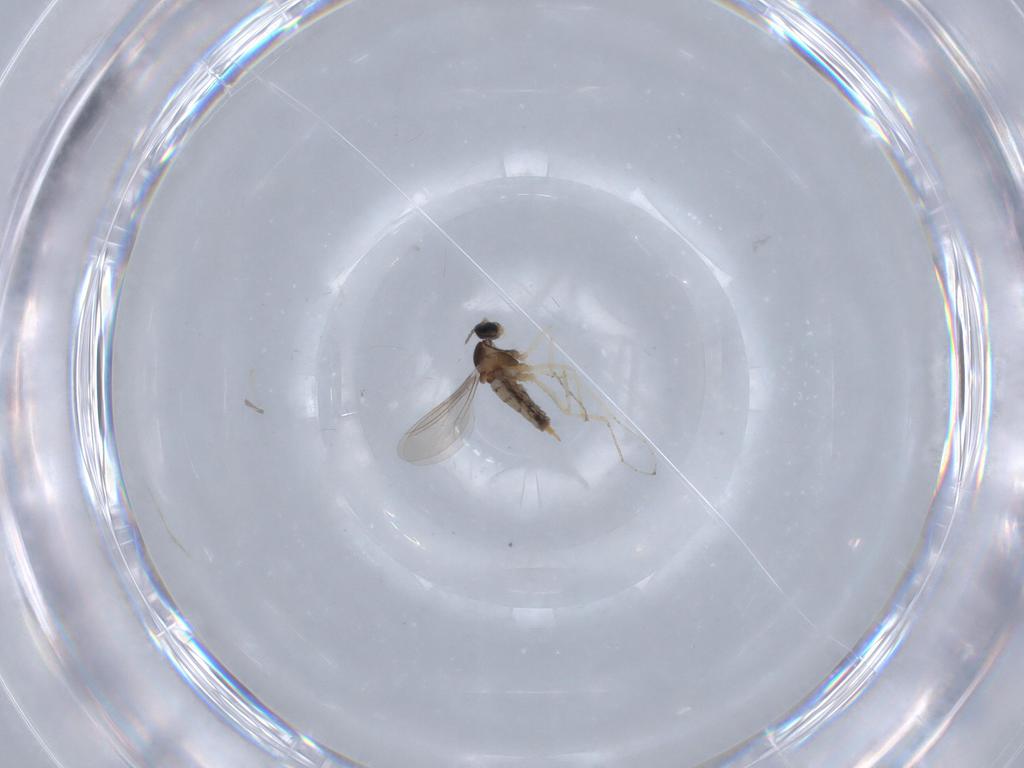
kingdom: Animalia
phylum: Arthropoda
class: Insecta
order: Diptera
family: Cecidomyiidae
